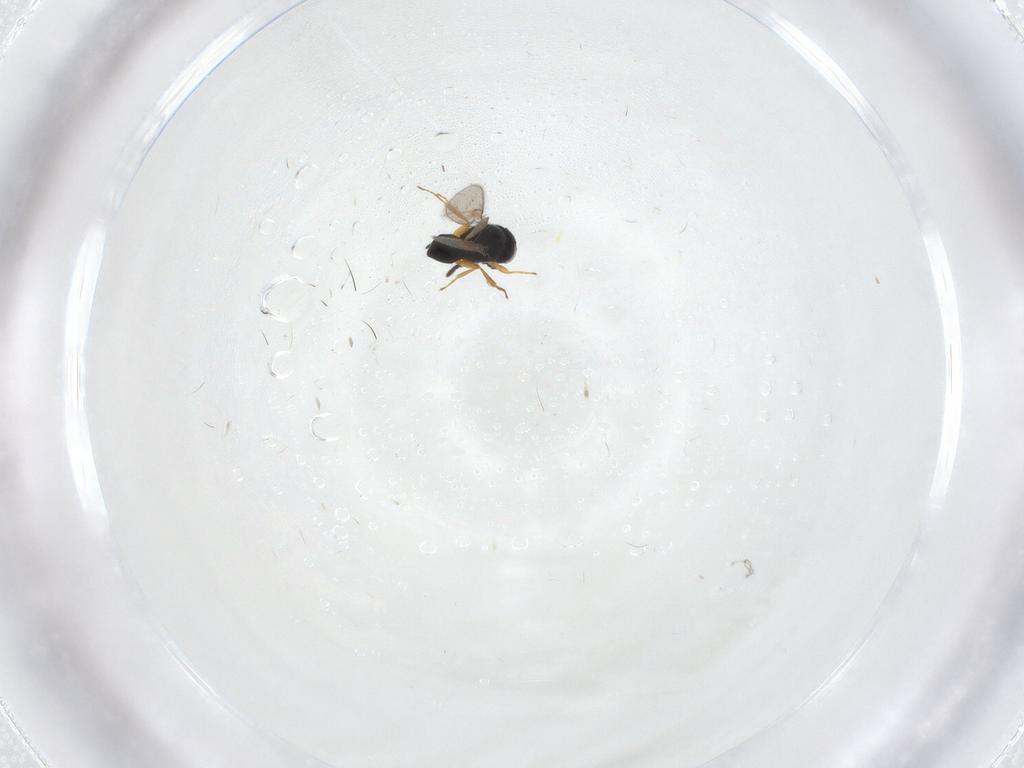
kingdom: Animalia
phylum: Arthropoda
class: Insecta
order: Hymenoptera
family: Scelionidae
